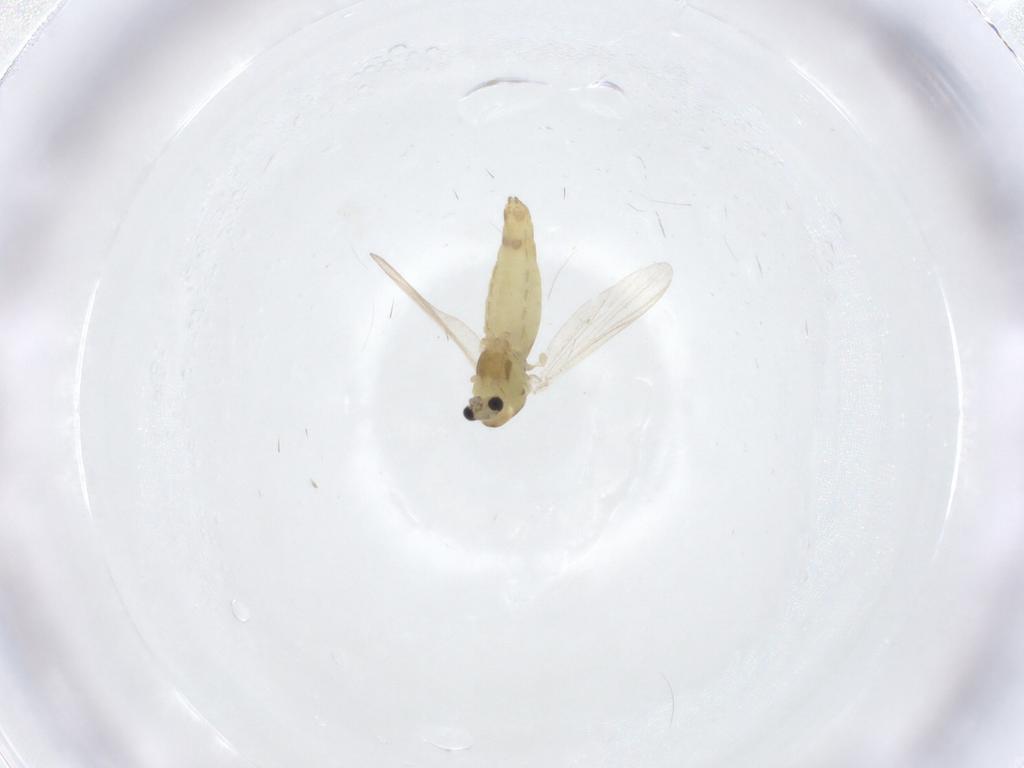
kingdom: Animalia
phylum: Arthropoda
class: Insecta
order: Diptera
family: Chironomidae
